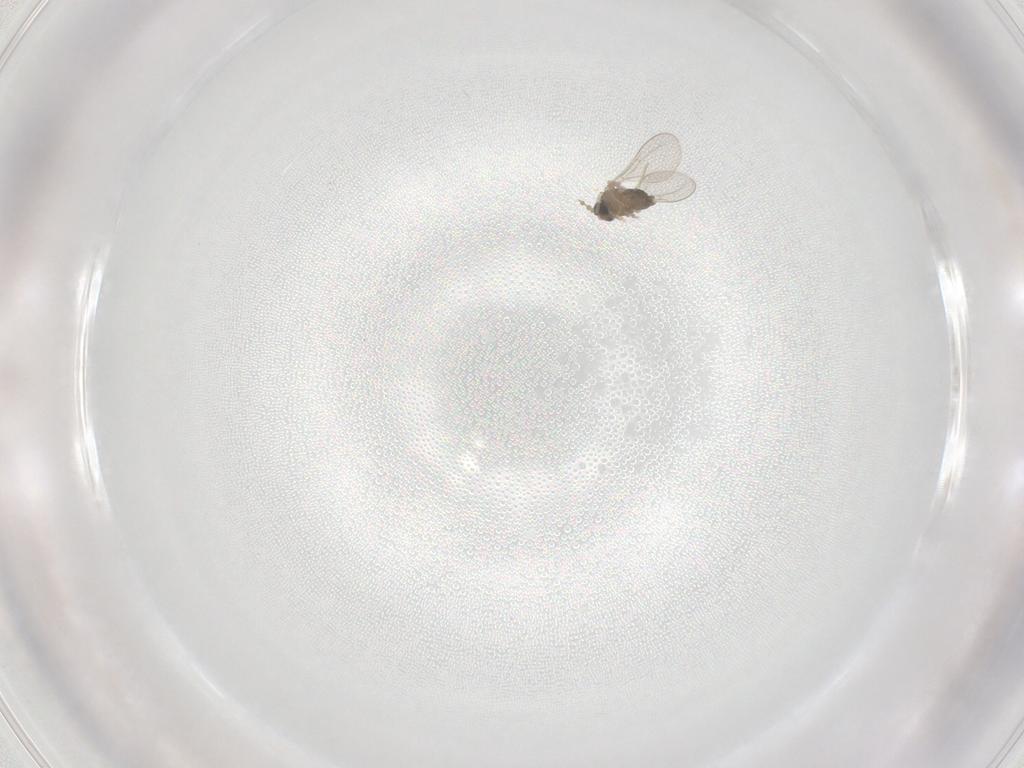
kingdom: Animalia
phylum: Arthropoda
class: Insecta
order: Diptera
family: Cecidomyiidae
